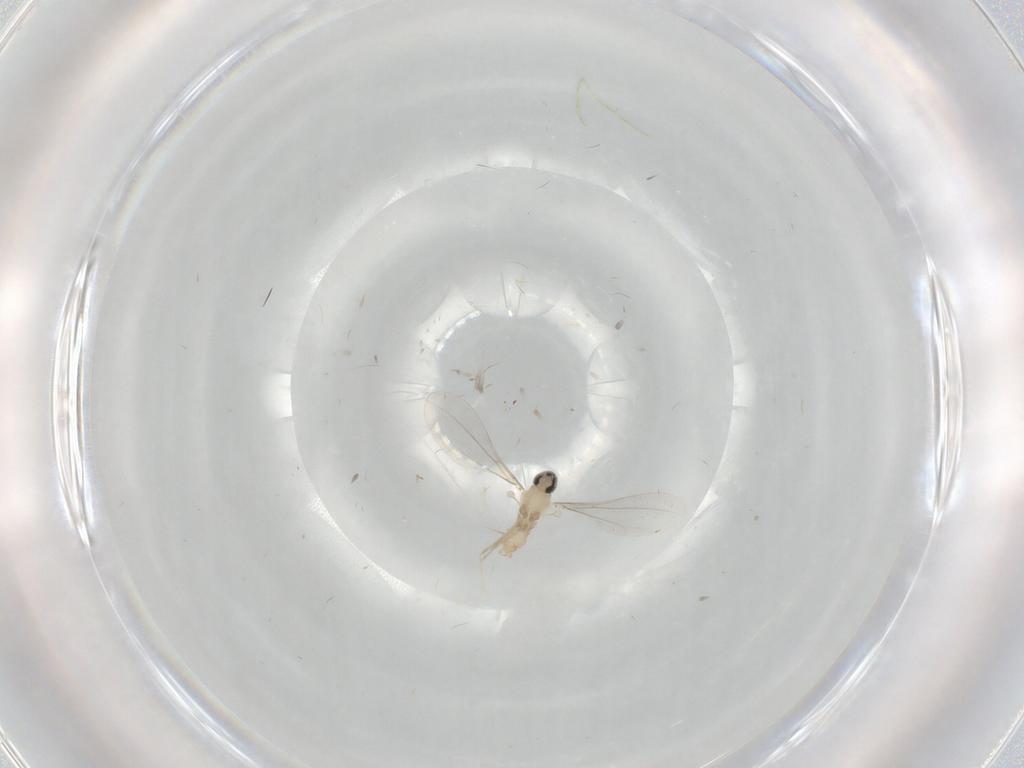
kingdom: Animalia
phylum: Arthropoda
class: Insecta
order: Diptera
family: Cecidomyiidae
